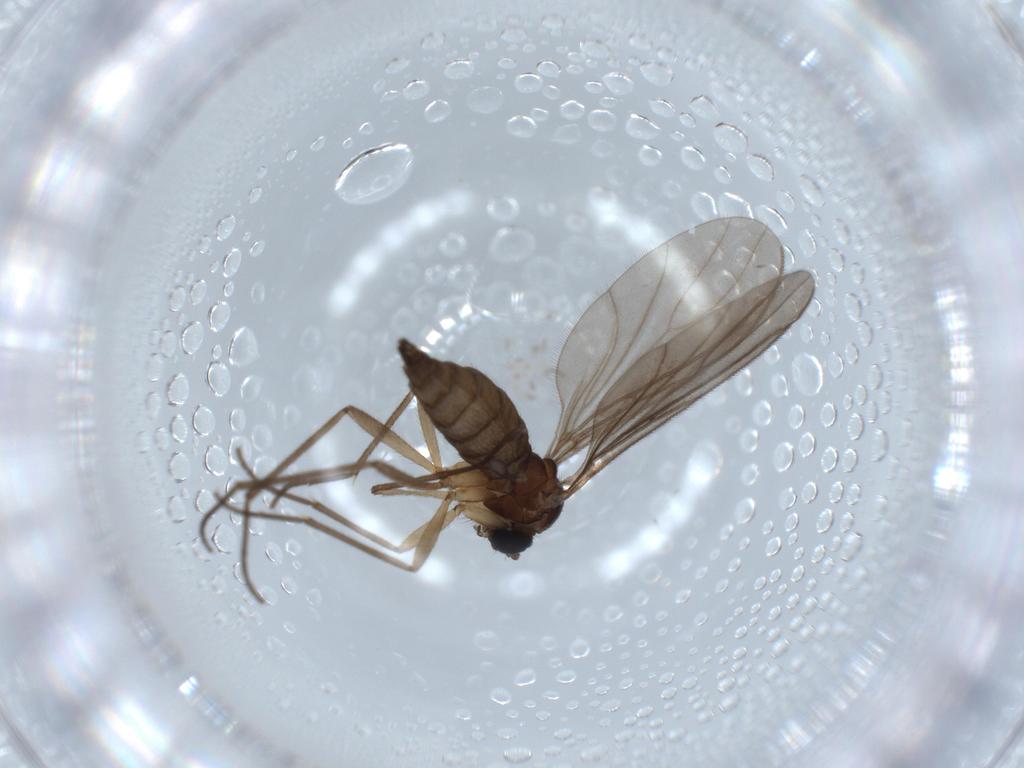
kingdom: Animalia
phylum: Arthropoda
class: Insecta
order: Diptera
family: Sciaridae
